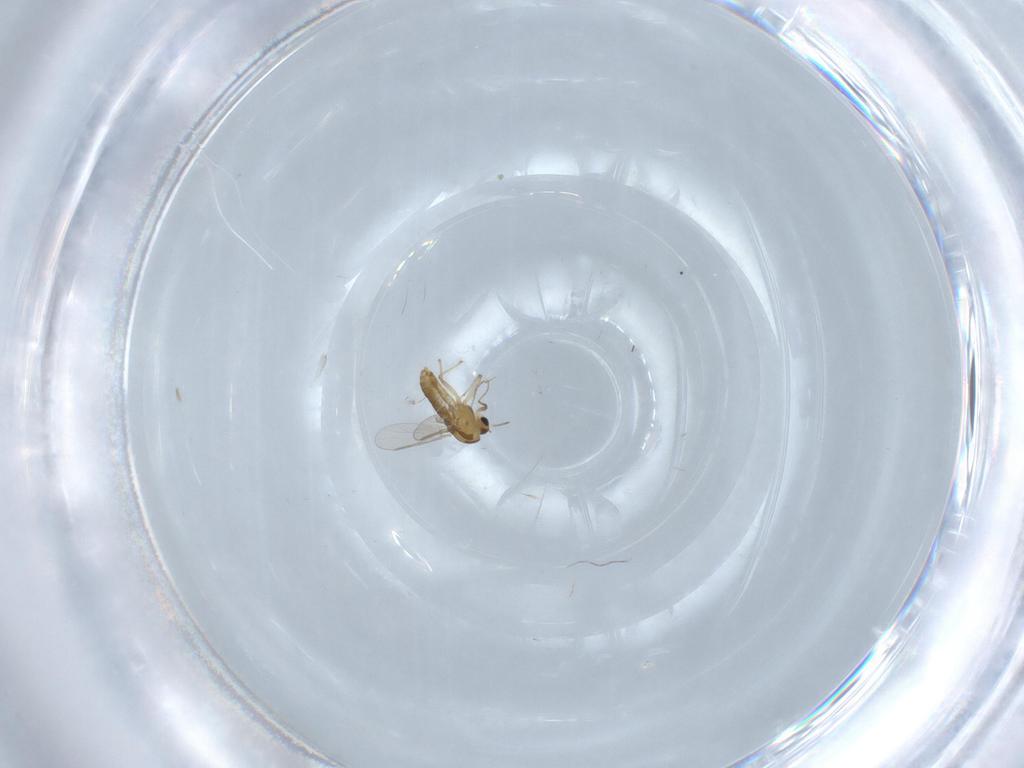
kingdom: Animalia
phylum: Arthropoda
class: Insecta
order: Diptera
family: Chironomidae
